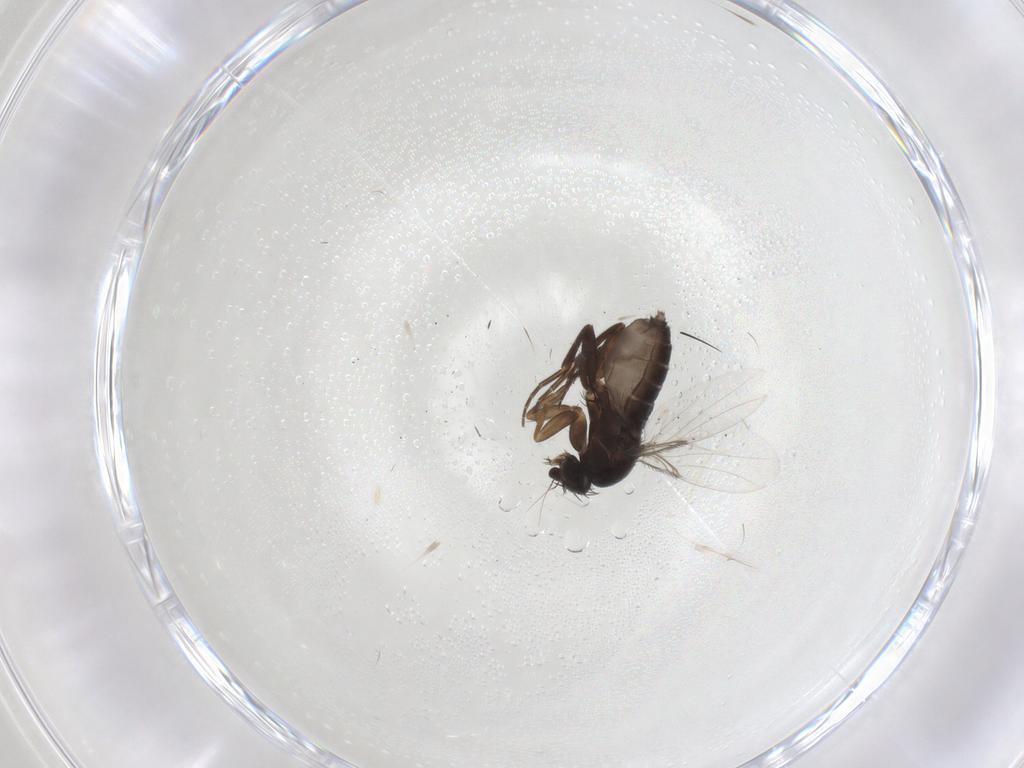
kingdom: Animalia
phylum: Arthropoda
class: Insecta
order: Diptera
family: Phoridae
